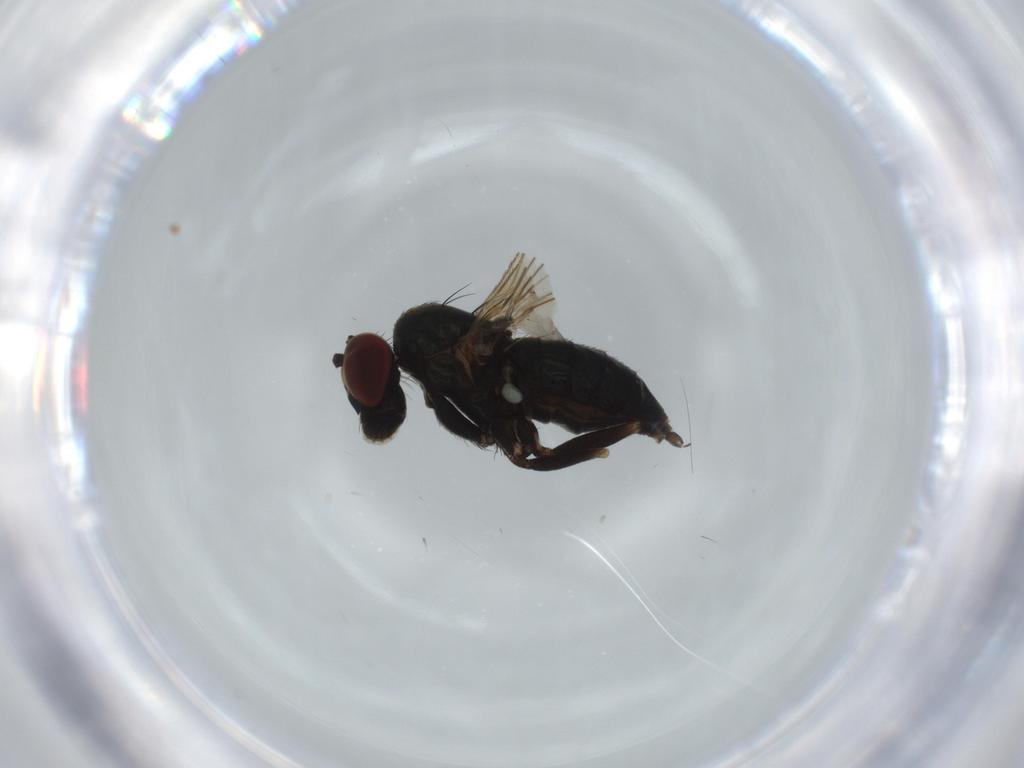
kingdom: Animalia
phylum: Arthropoda
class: Insecta
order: Diptera
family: Dolichopodidae
